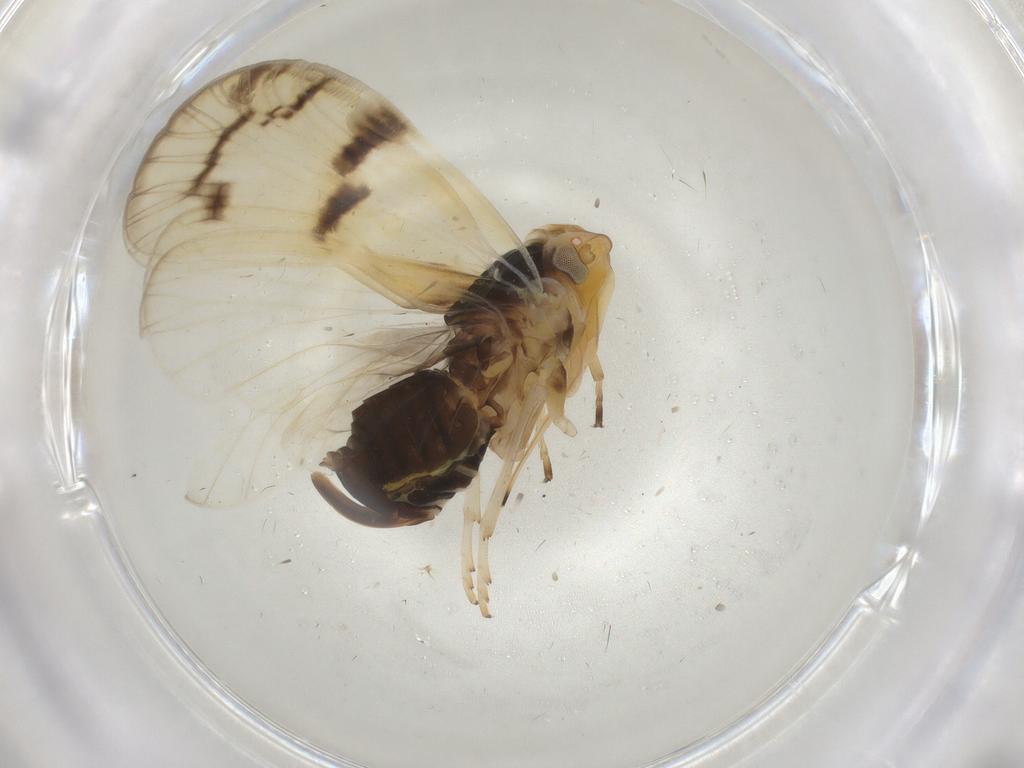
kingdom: Animalia
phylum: Arthropoda
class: Insecta
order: Hemiptera
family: Cixiidae
